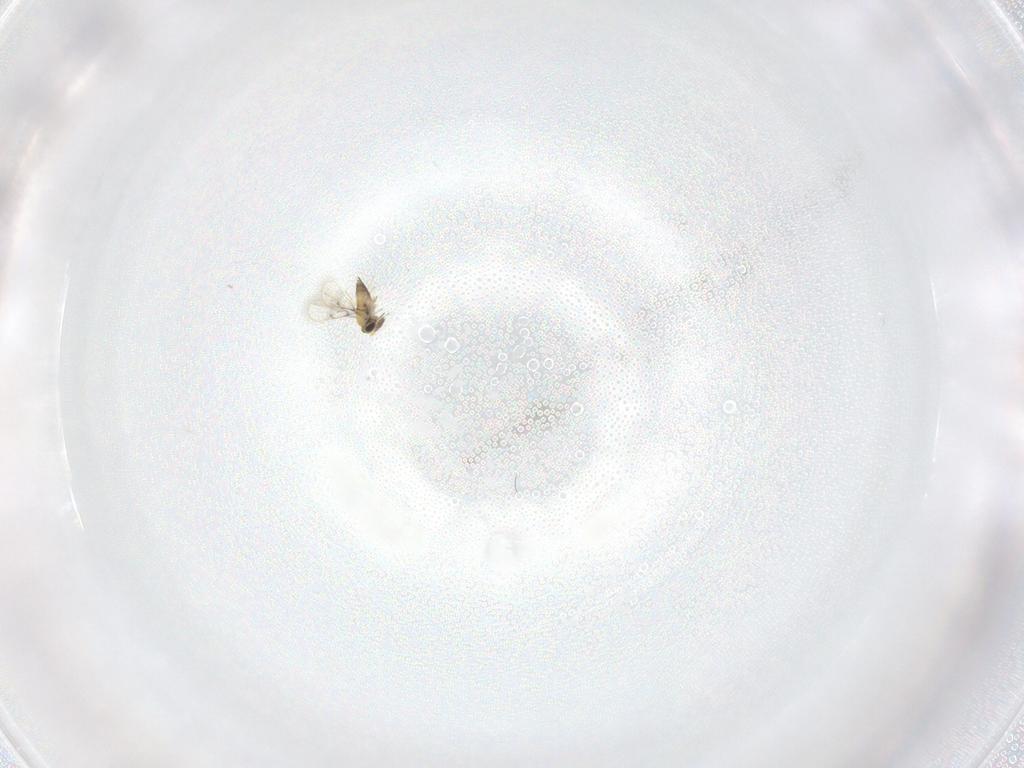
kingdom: Animalia
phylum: Arthropoda
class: Insecta
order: Hymenoptera
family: Trichogrammatidae
